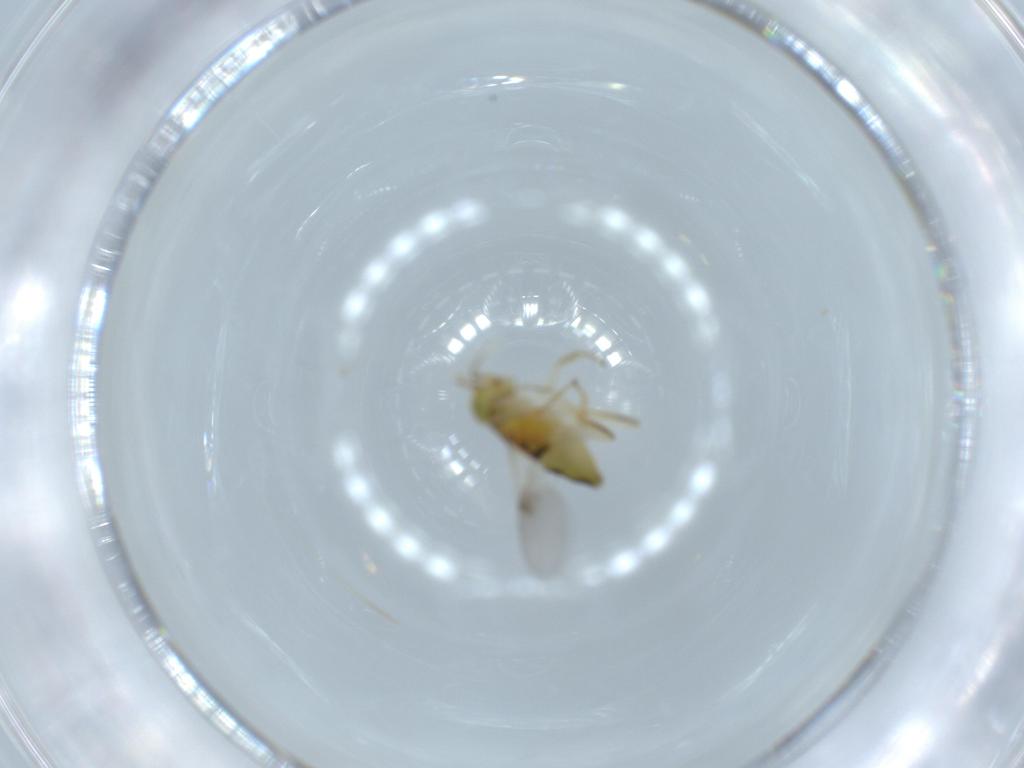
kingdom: Animalia
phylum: Arthropoda
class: Insecta
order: Hymenoptera
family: Encyrtidae
